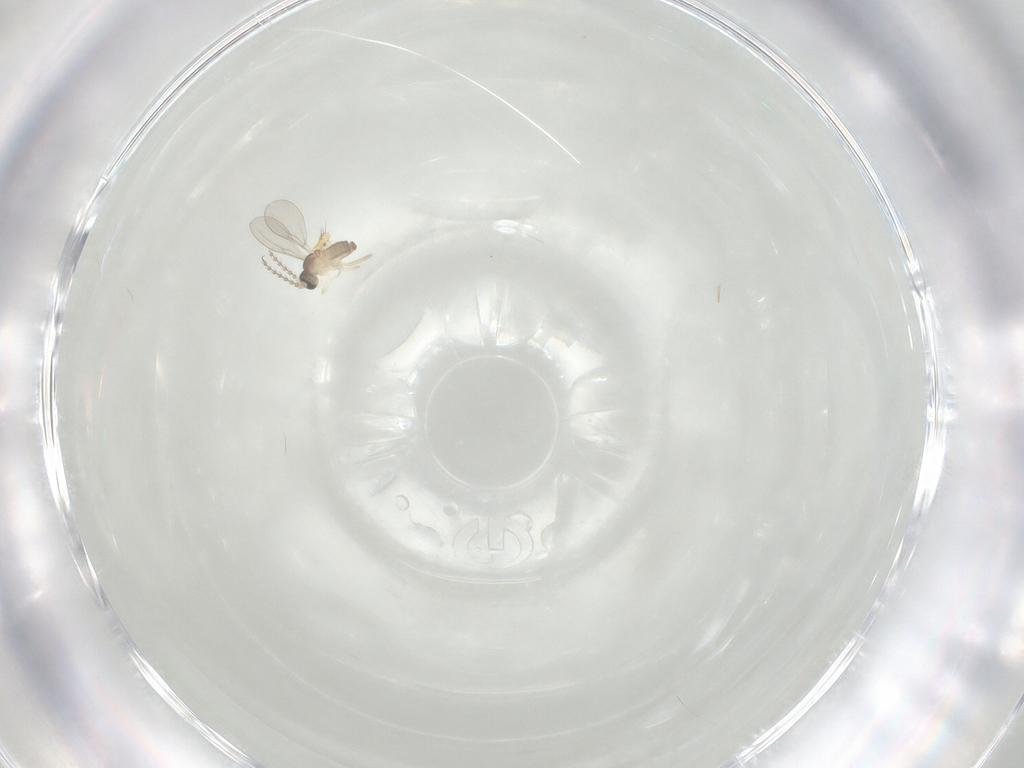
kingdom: Animalia
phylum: Arthropoda
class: Insecta
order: Diptera
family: Cecidomyiidae
